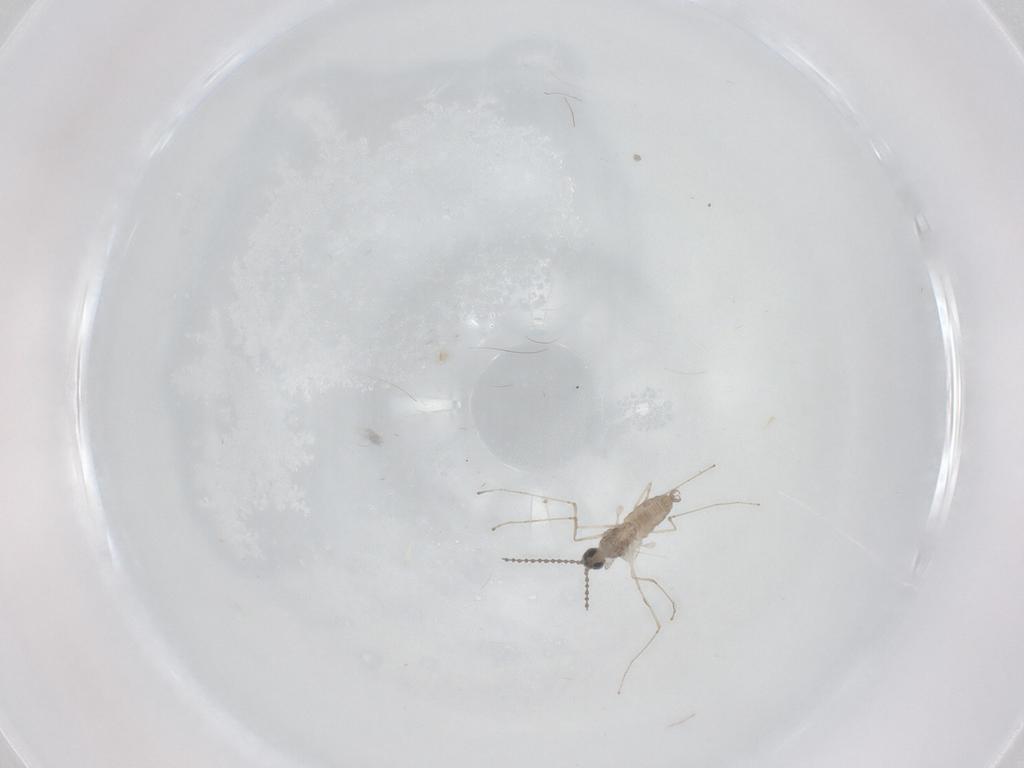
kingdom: Animalia
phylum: Arthropoda
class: Insecta
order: Diptera
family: Cecidomyiidae
